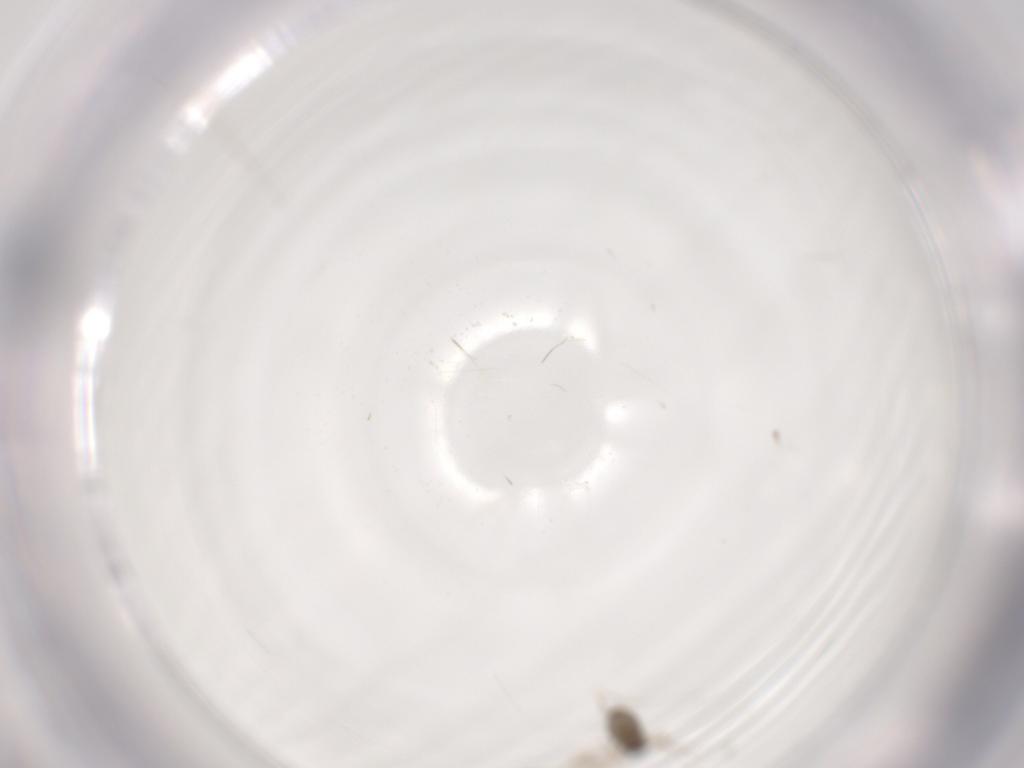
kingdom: Animalia
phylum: Arthropoda
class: Insecta
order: Diptera
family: Cecidomyiidae
